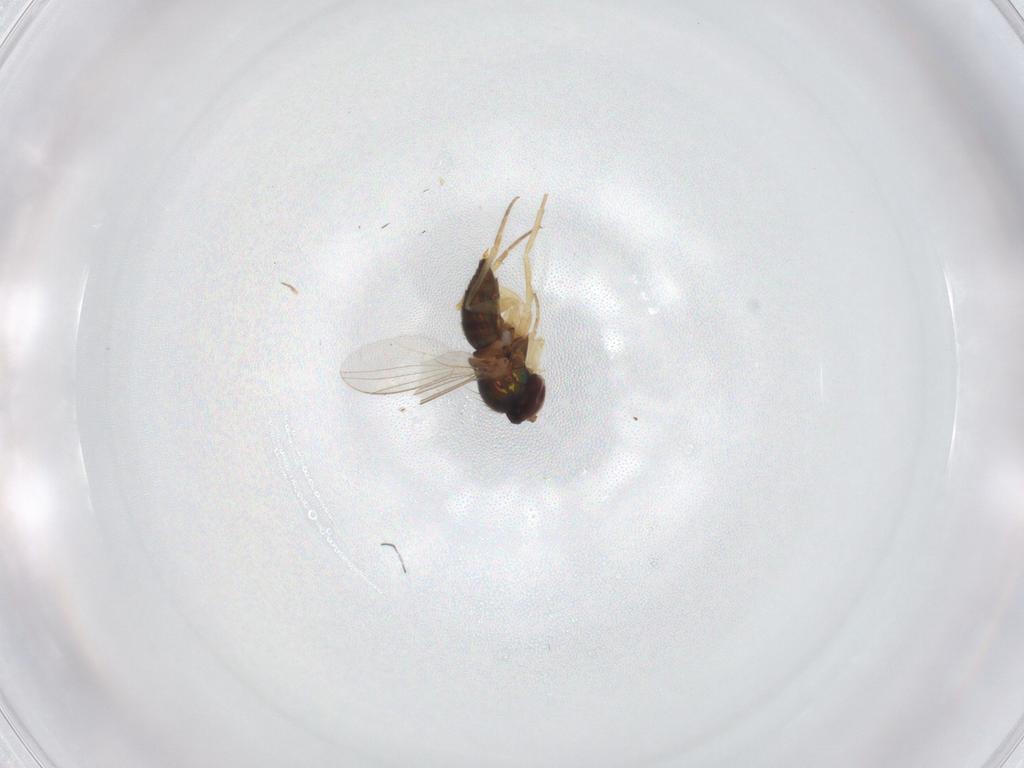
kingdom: Animalia
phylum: Arthropoda
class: Insecta
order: Diptera
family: Dolichopodidae
